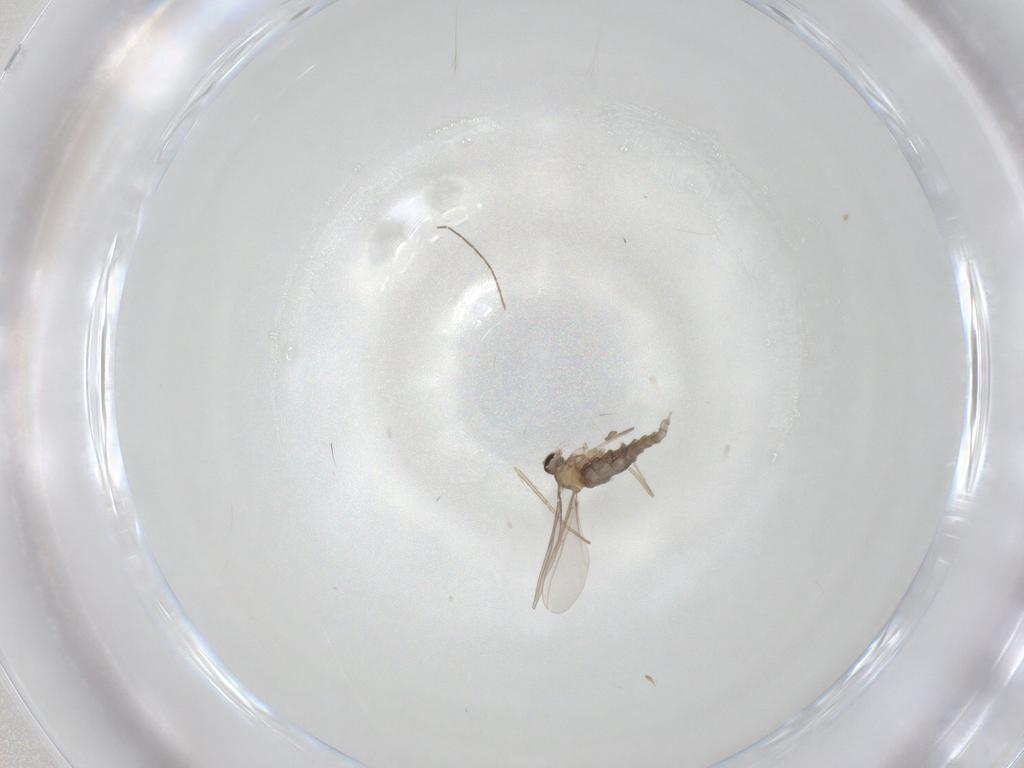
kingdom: Animalia
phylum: Arthropoda
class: Insecta
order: Diptera
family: Cecidomyiidae
